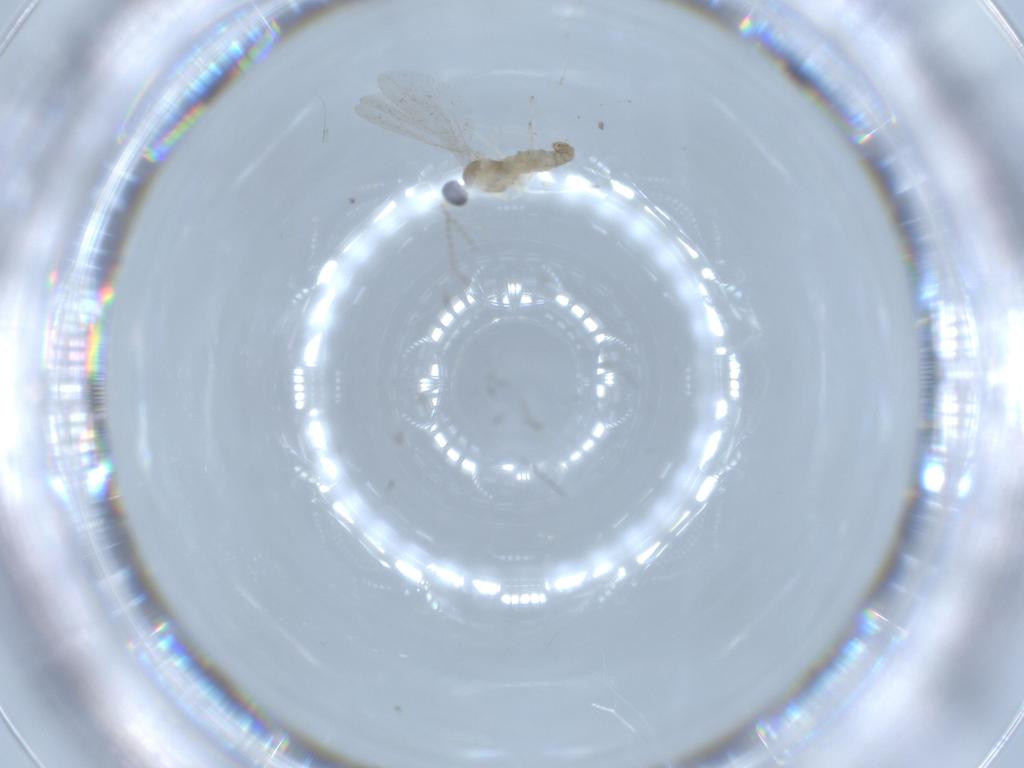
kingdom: Animalia
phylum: Arthropoda
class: Insecta
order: Diptera
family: Cecidomyiidae
